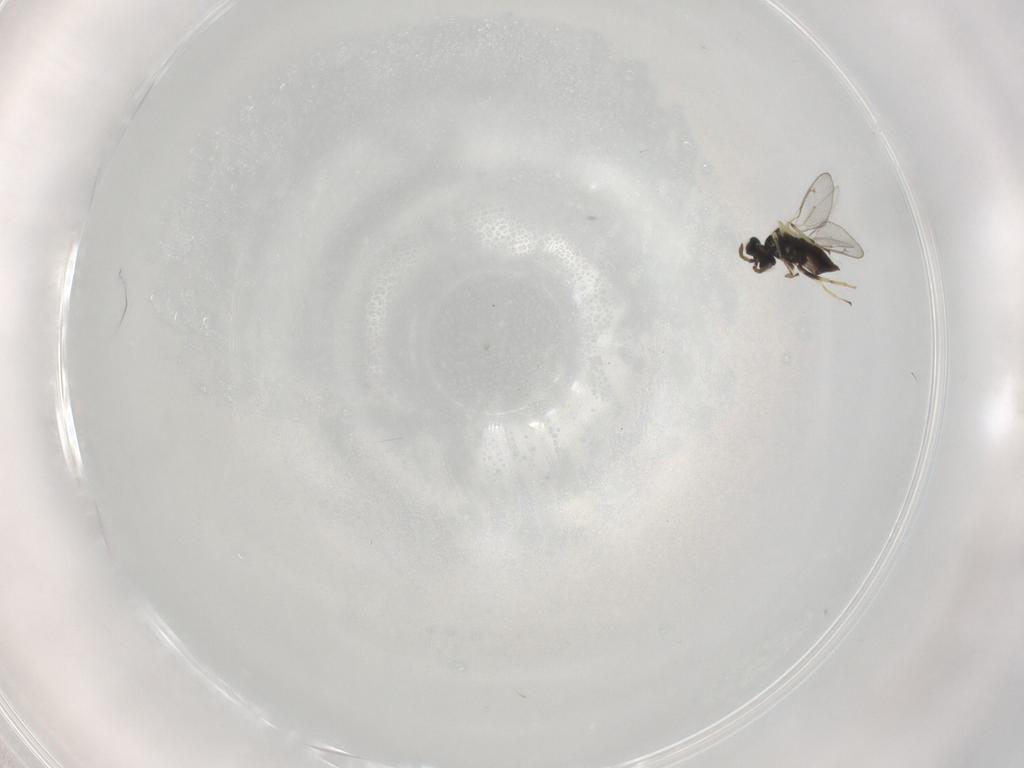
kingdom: Animalia
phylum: Arthropoda
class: Insecta
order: Hymenoptera
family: Eulophidae
